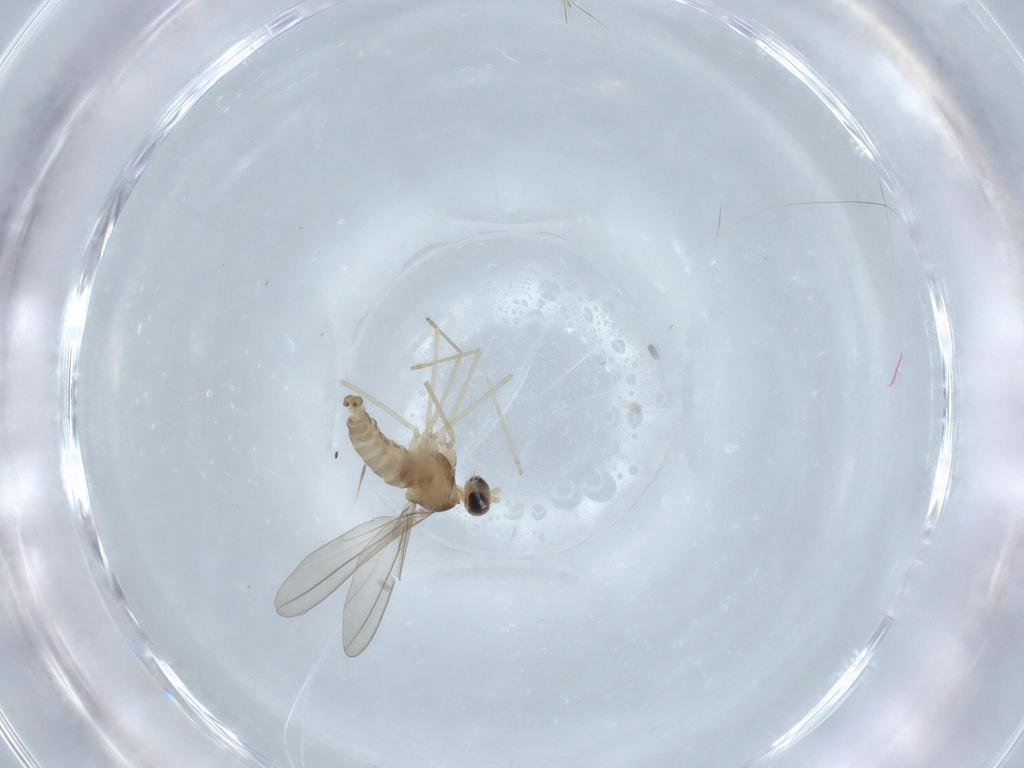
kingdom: Animalia
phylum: Arthropoda
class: Insecta
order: Diptera
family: Cecidomyiidae
